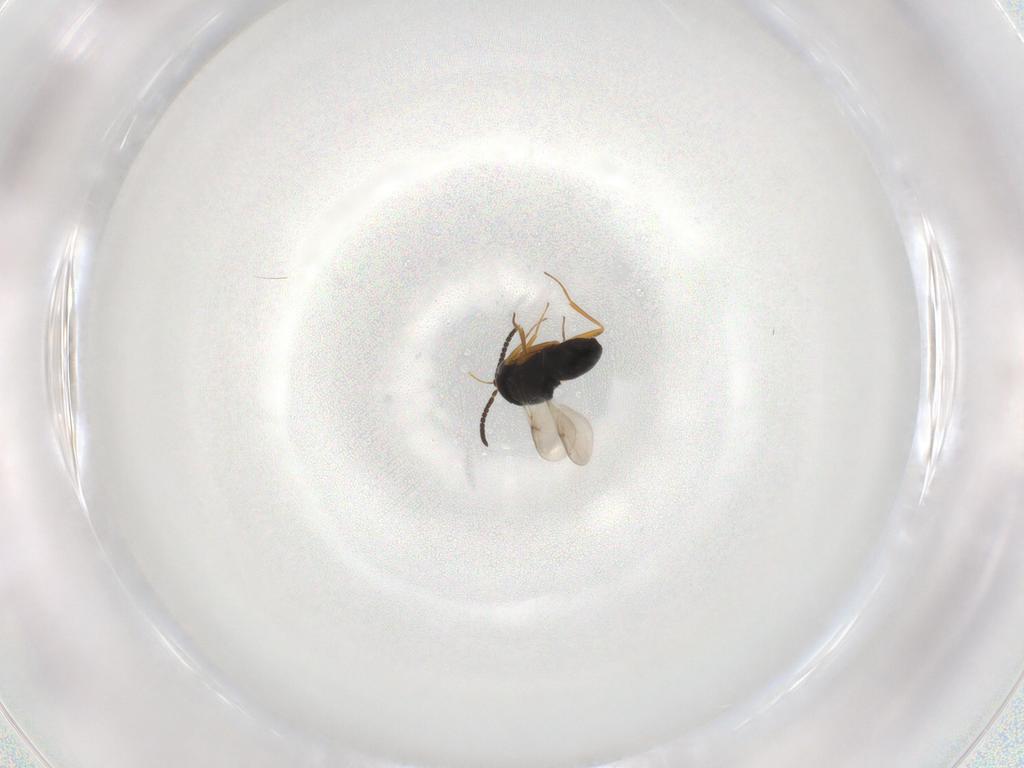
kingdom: Animalia
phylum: Arthropoda
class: Insecta
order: Hymenoptera
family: Scelionidae
